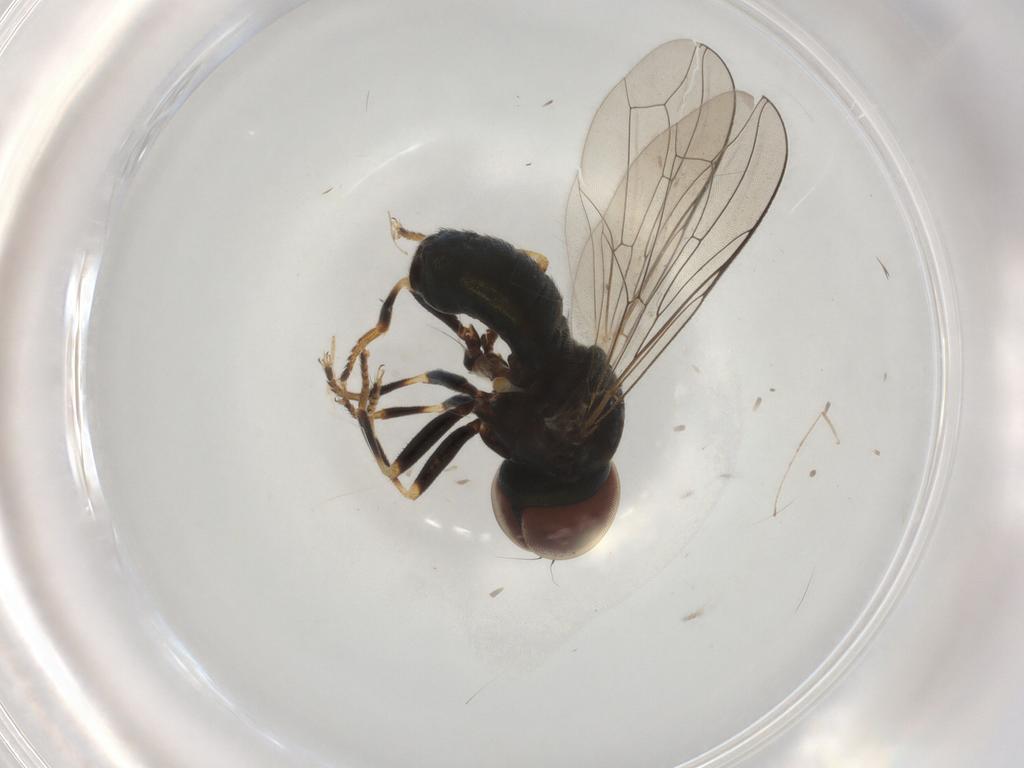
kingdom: Animalia
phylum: Arthropoda
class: Insecta
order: Diptera
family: Pipunculidae
